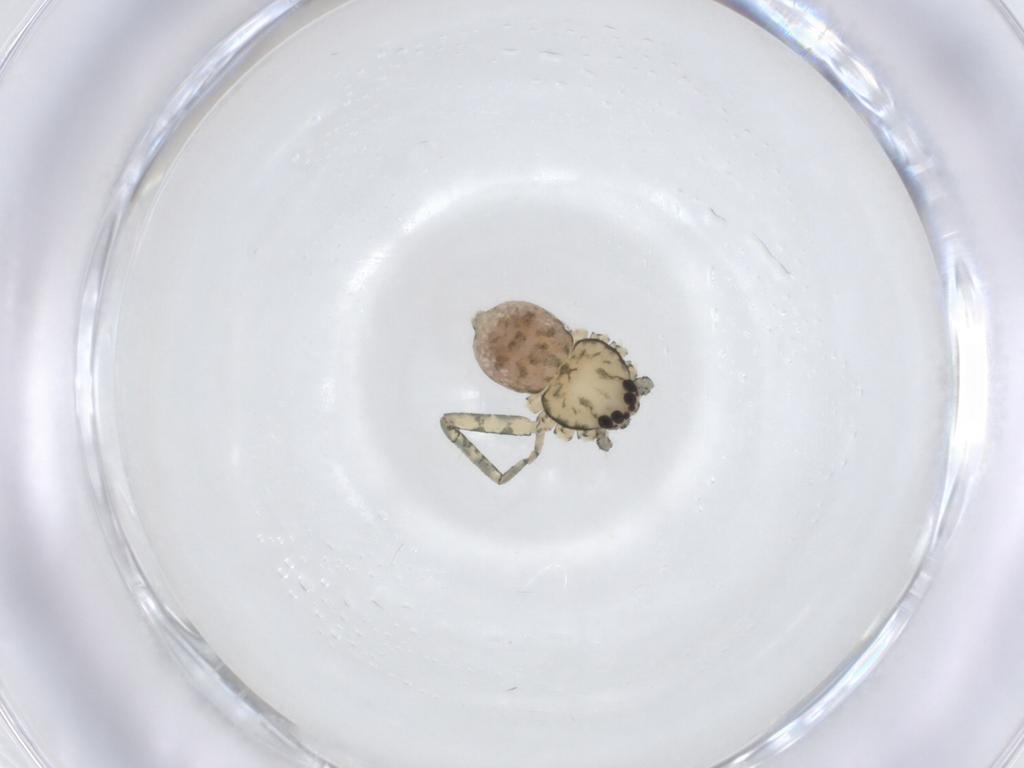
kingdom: Animalia
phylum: Arthropoda
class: Arachnida
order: Araneae
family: Selenopidae
